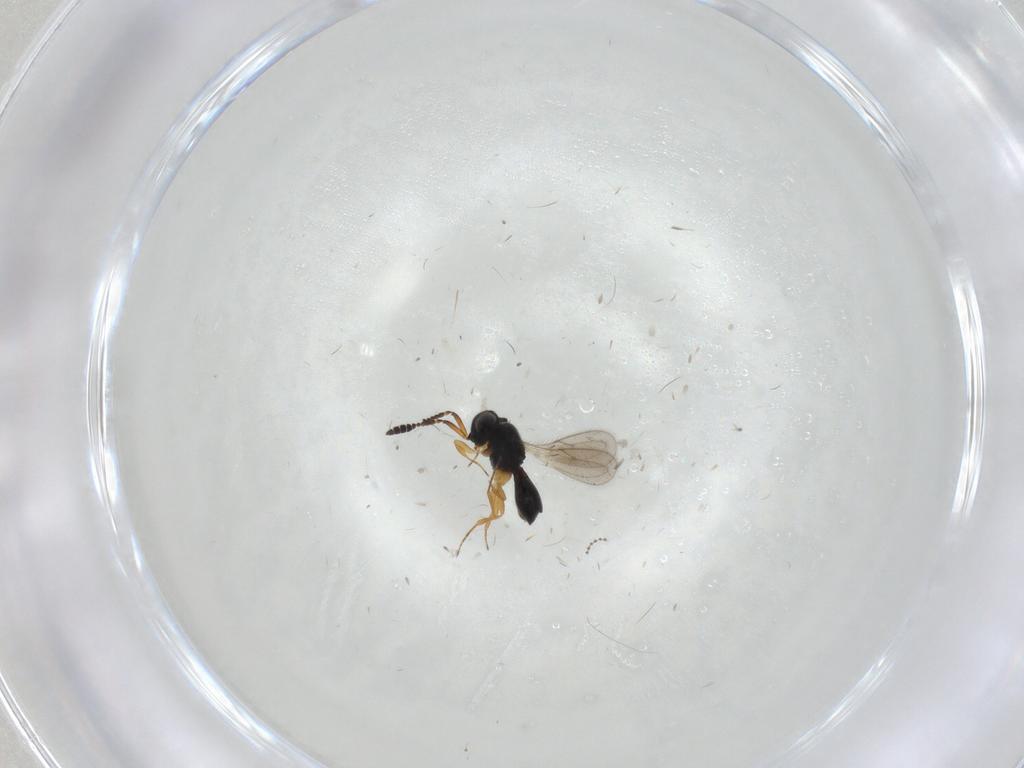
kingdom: Animalia
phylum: Arthropoda
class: Insecta
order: Hymenoptera
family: Scelionidae
